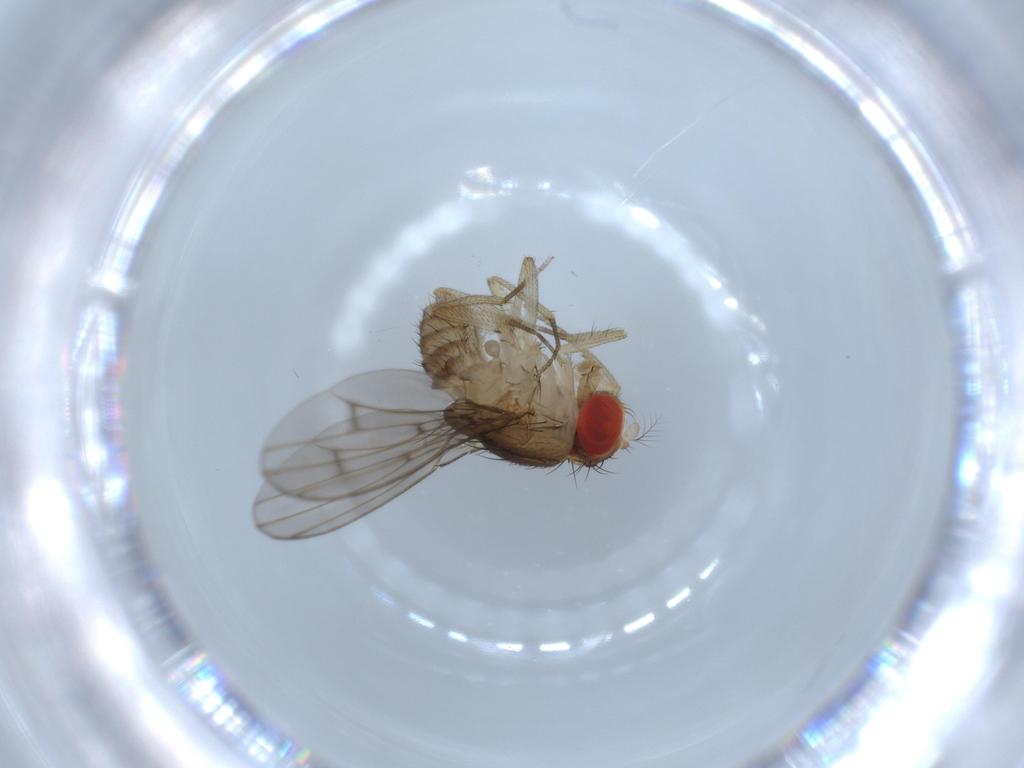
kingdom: Animalia
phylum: Arthropoda
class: Insecta
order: Diptera
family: Drosophilidae
